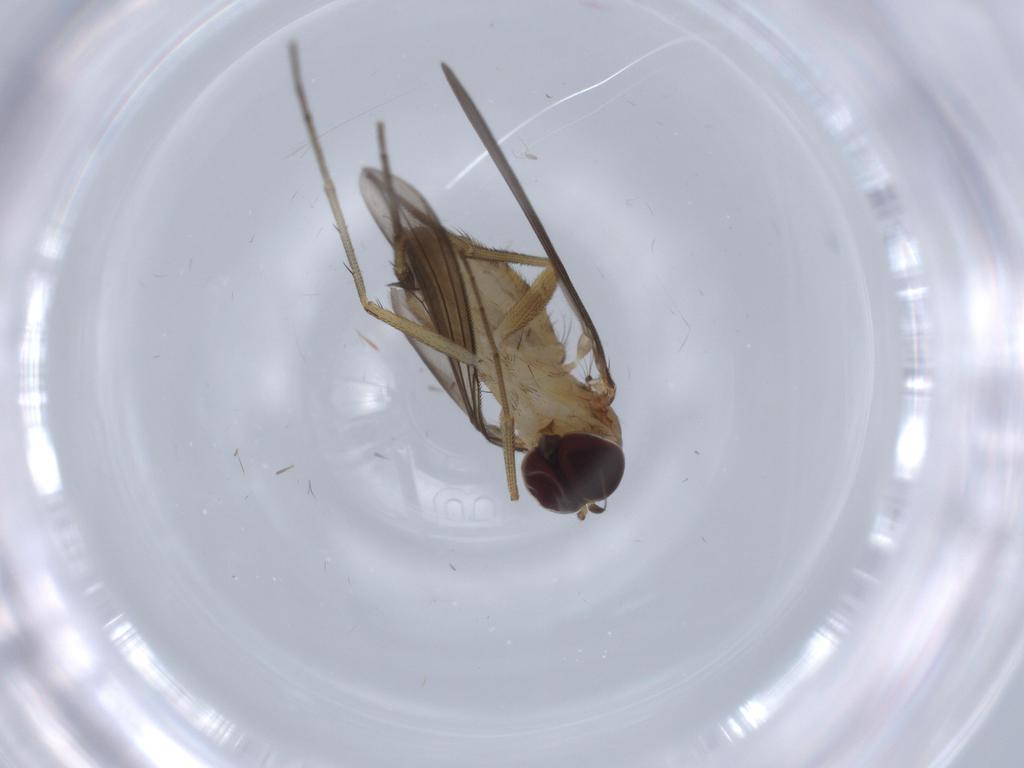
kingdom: Animalia
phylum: Arthropoda
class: Insecta
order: Diptera
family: Dolichopodidae
